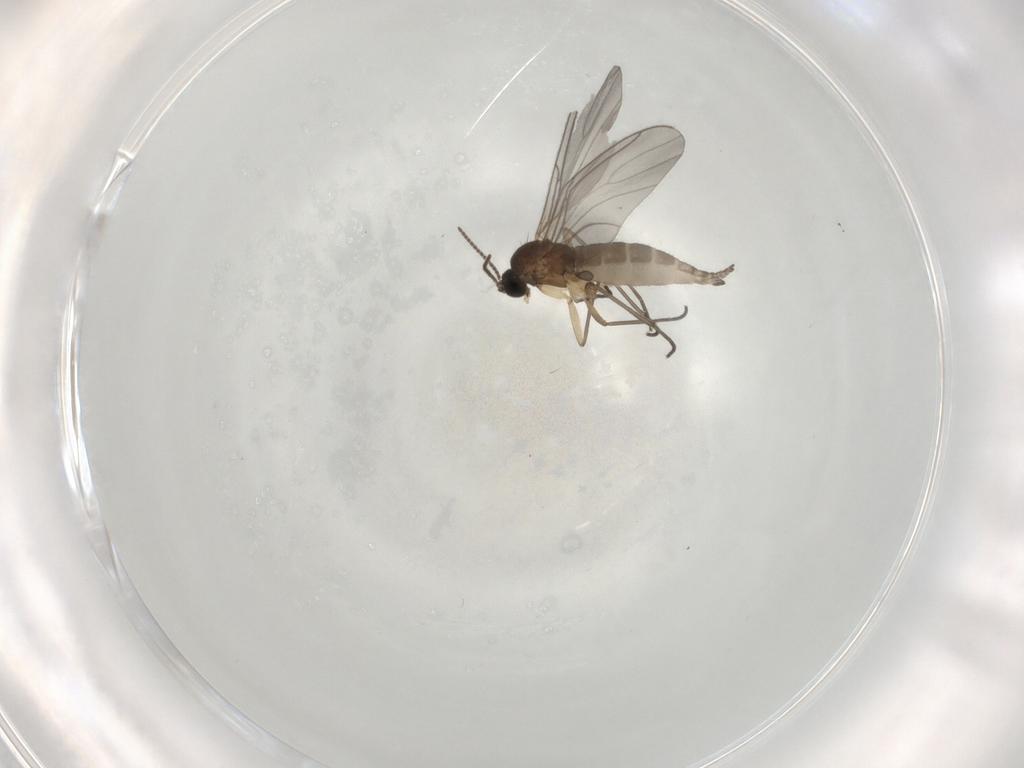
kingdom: Animalia
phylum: Arthropoda
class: Insecta
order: Diptera
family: Sciaridae
